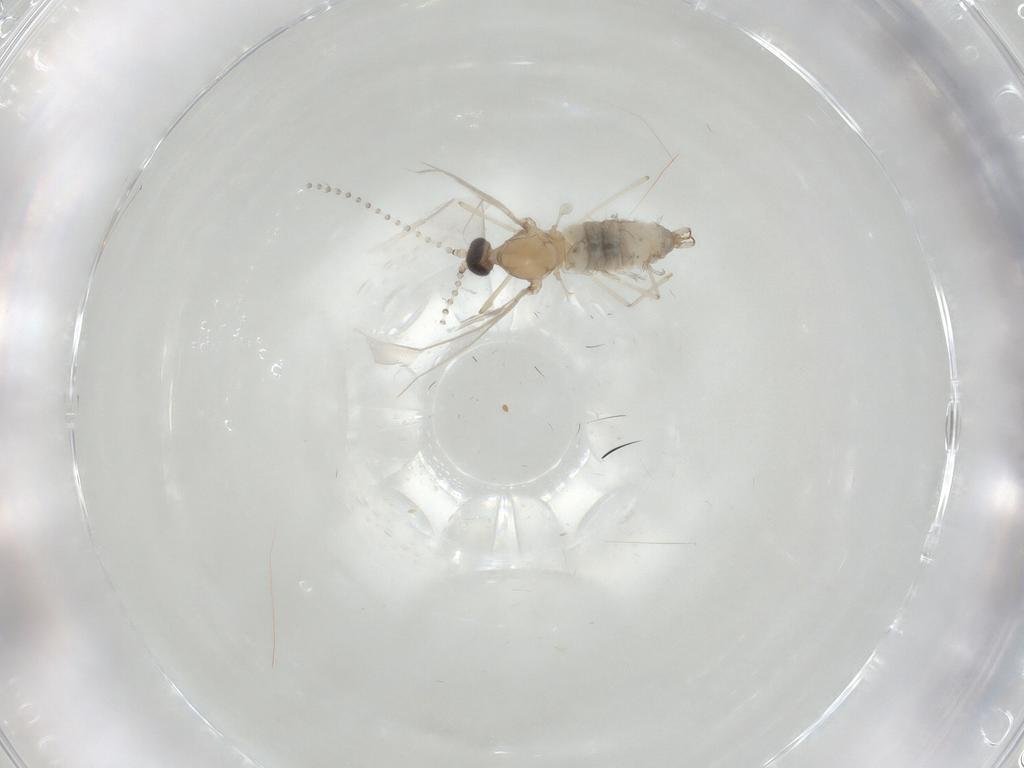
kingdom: Animalia
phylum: Arthropoda
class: Insecta
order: Diptera
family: Cecidomyiidae
